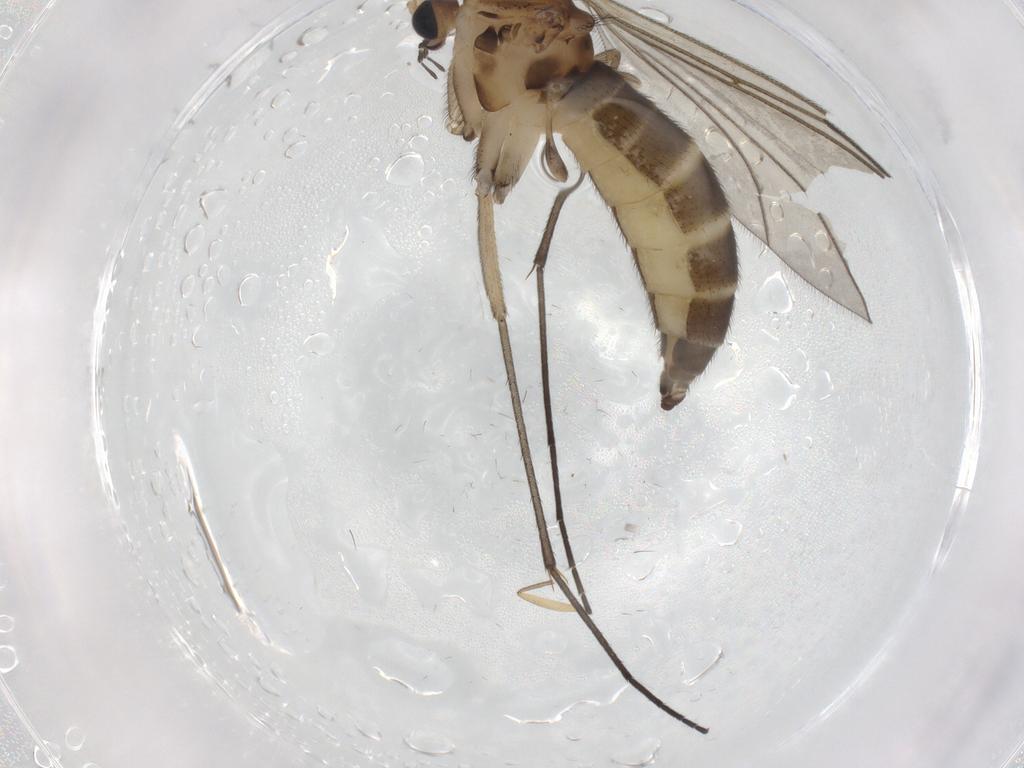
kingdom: Animalia
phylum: Arthropoda
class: Insecta
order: Diptera
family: Sciaridae
